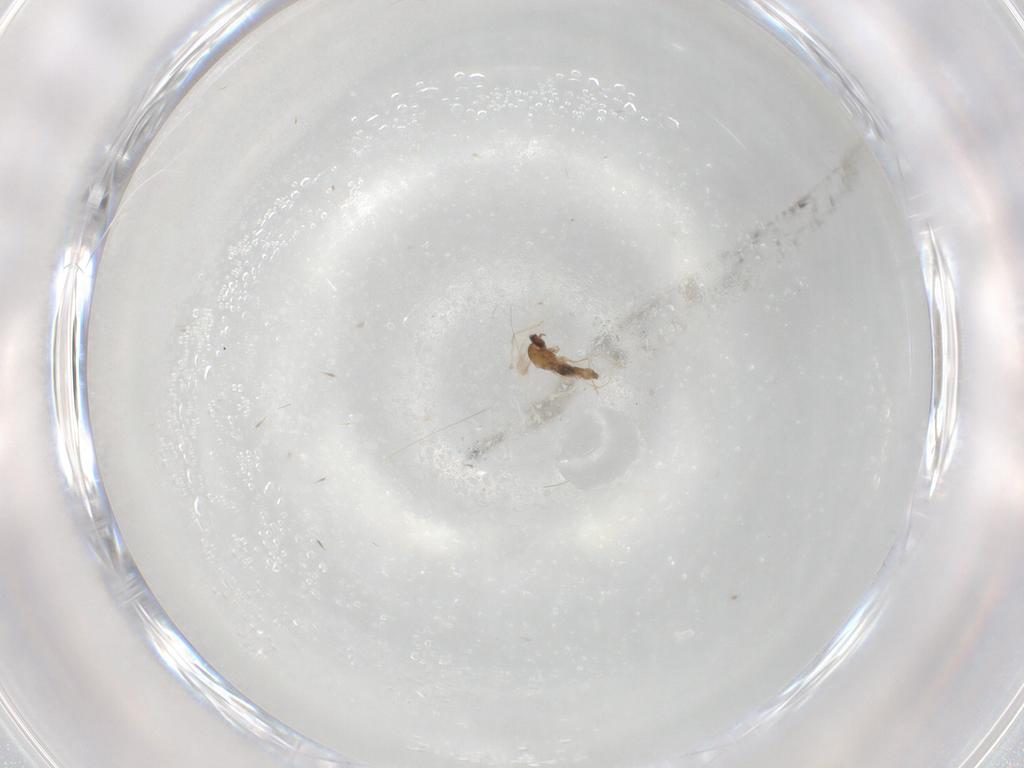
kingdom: Animalia
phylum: Arthropoda
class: Insecta
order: Diptera
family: Cecidomyiidae
